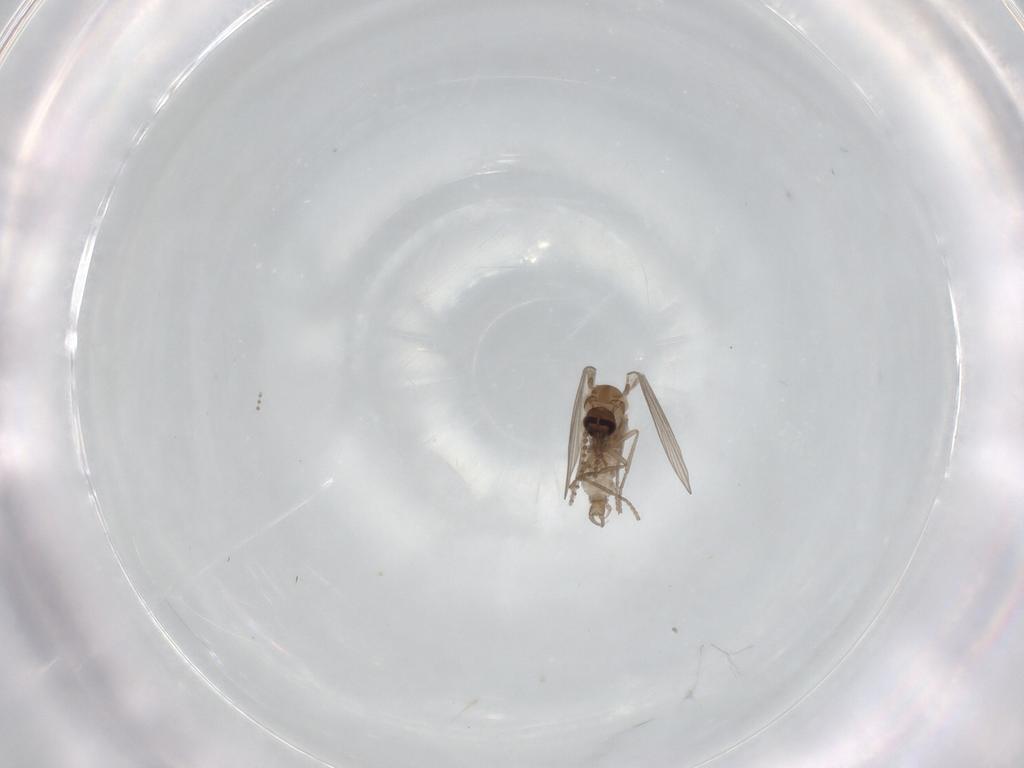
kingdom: Animalia
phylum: Arthropoda
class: Insecta
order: Diptera
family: Psychodidae
